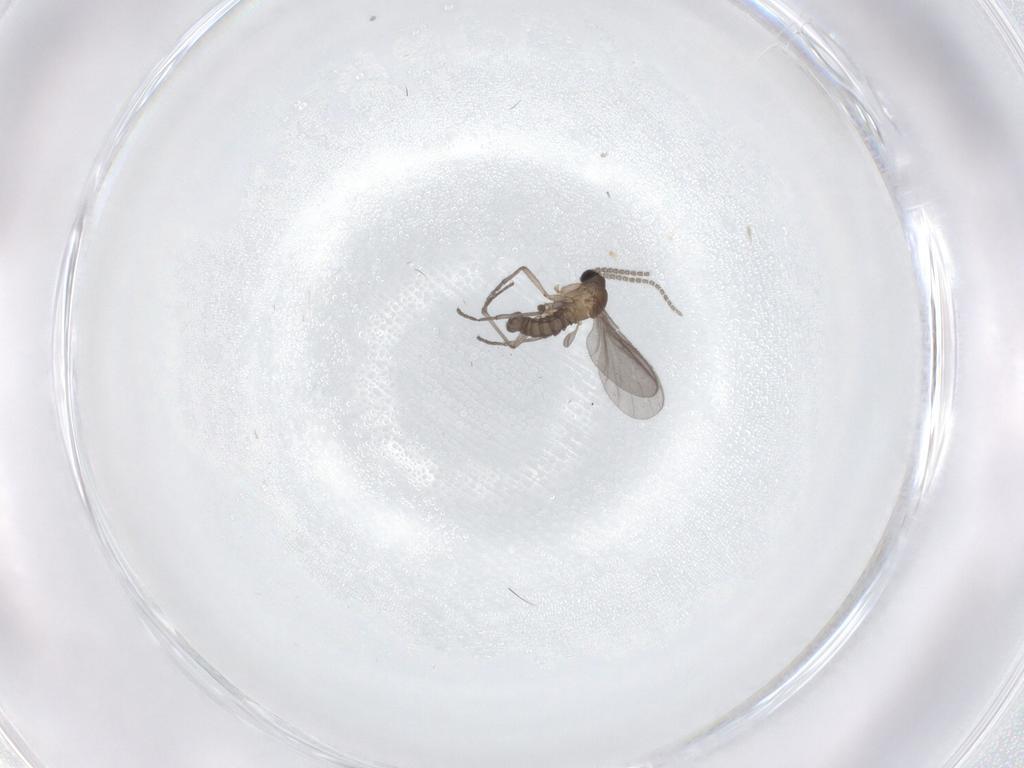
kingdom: Animalia
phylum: Arthropoda
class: Insecta
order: Diptera
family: Sciaridae
